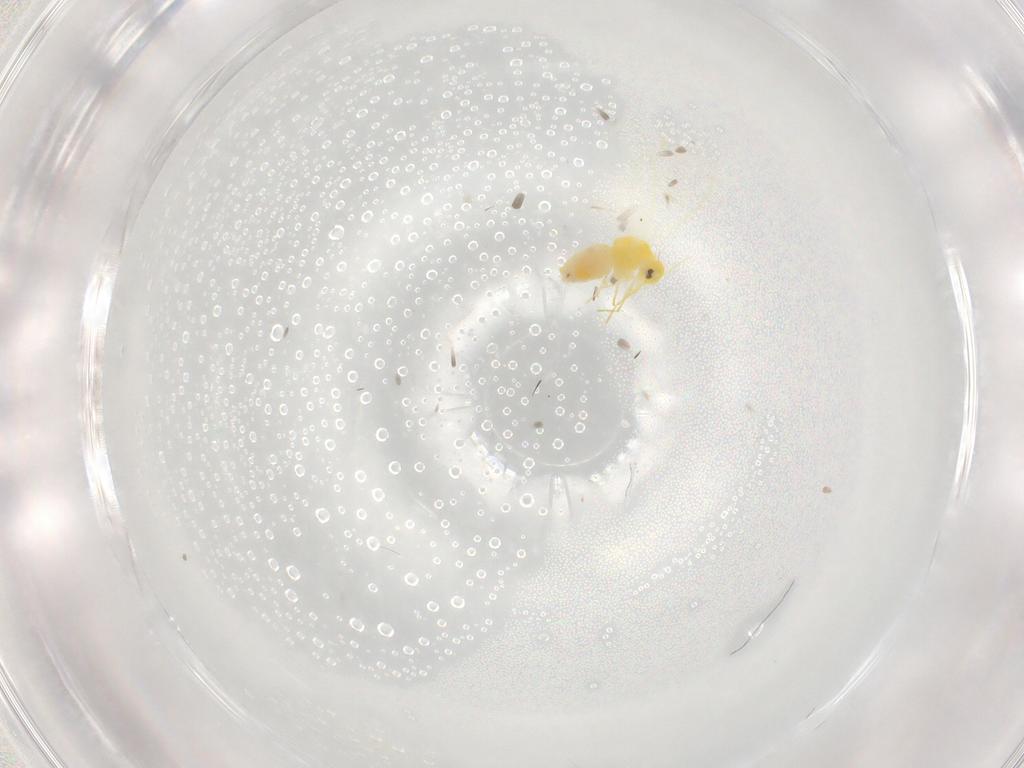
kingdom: Animalia
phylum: Arthropoda
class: Insecta
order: Hemiptera
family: Aleyrodidae
